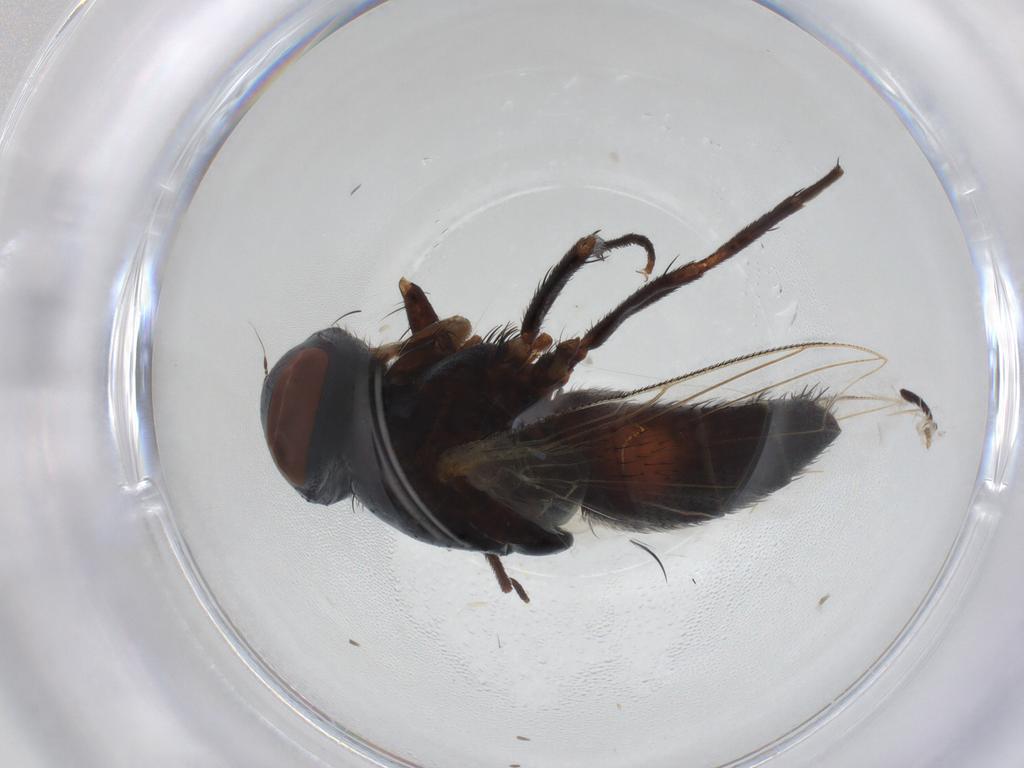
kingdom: Animalia
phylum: Arthropoda
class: Insecta
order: Diptera
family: Sarcophagidae
